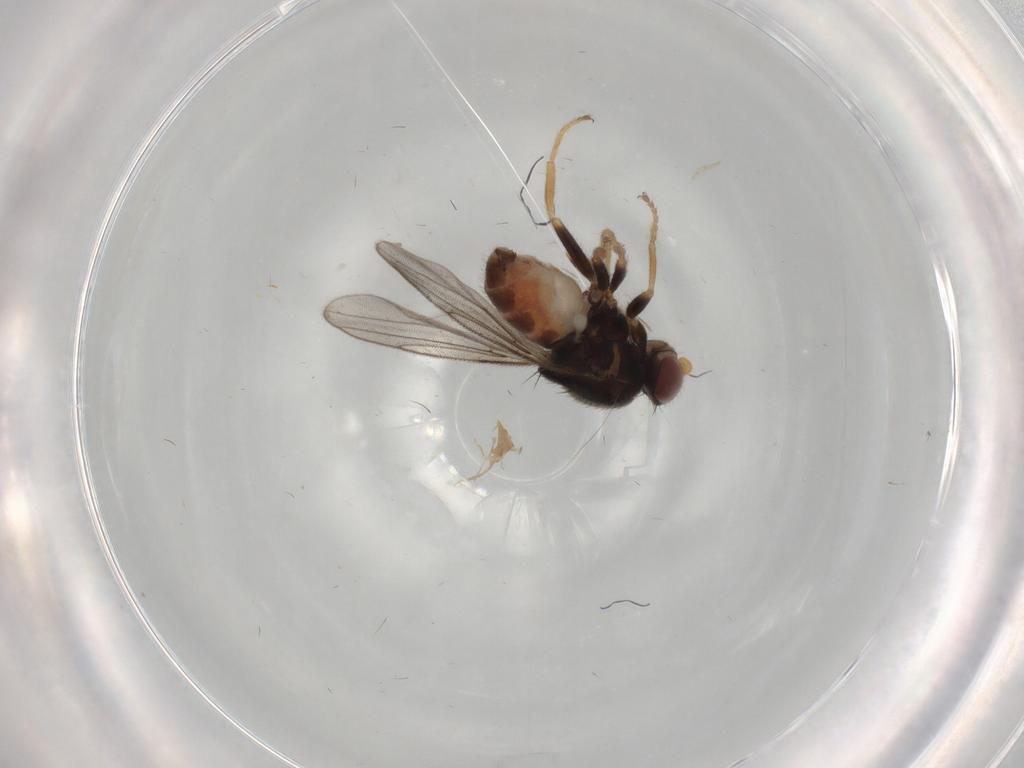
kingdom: Animalia
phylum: Arthropoda
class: Insecta
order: Diptera
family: Chloropidae
